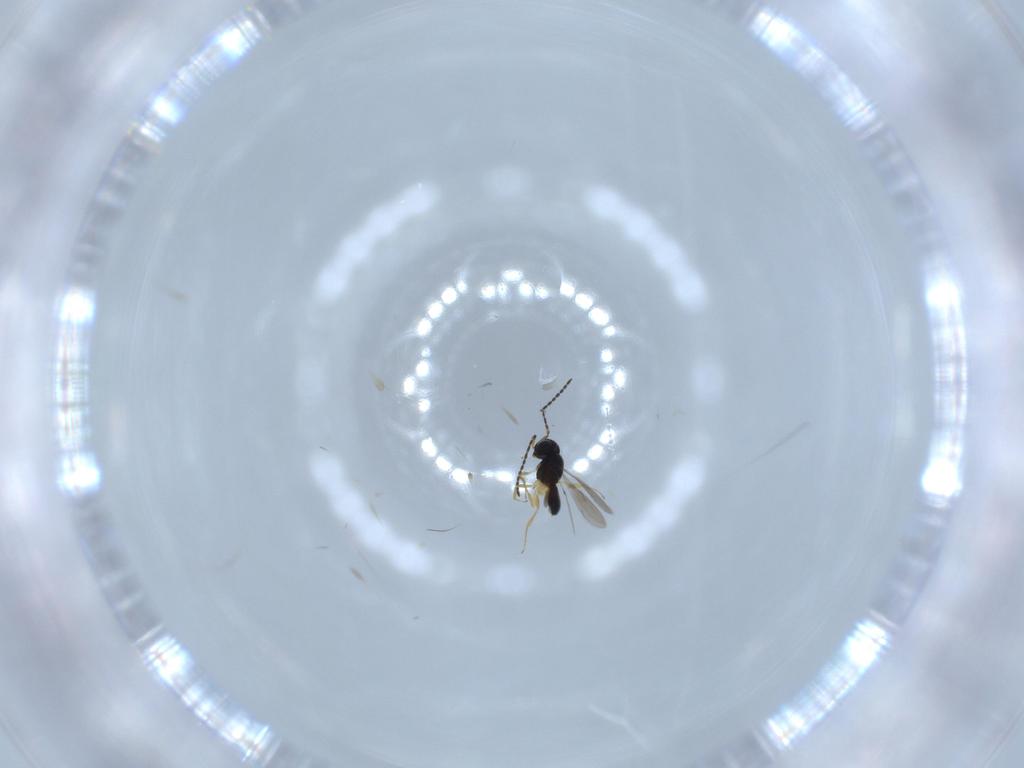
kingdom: Animalia
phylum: Arthropoda
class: Insecta
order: Hymenoptera
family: Scelionidae
